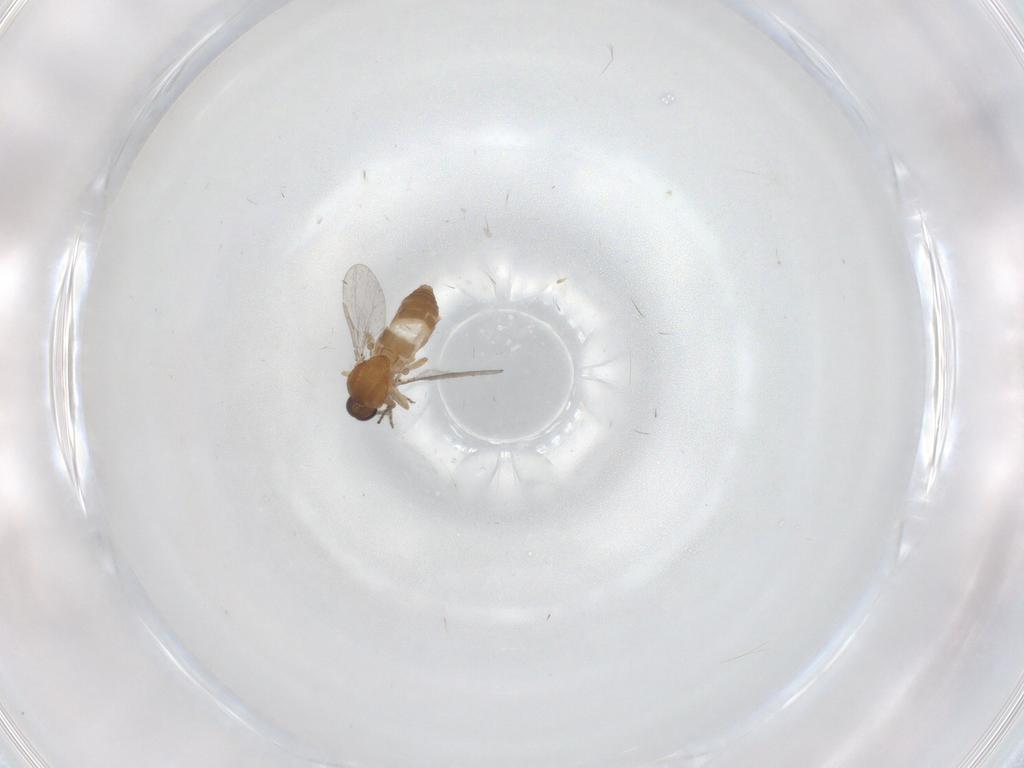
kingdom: Animalia
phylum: Arthropoda
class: Insecta
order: Diptera
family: Ceratopogonidae
